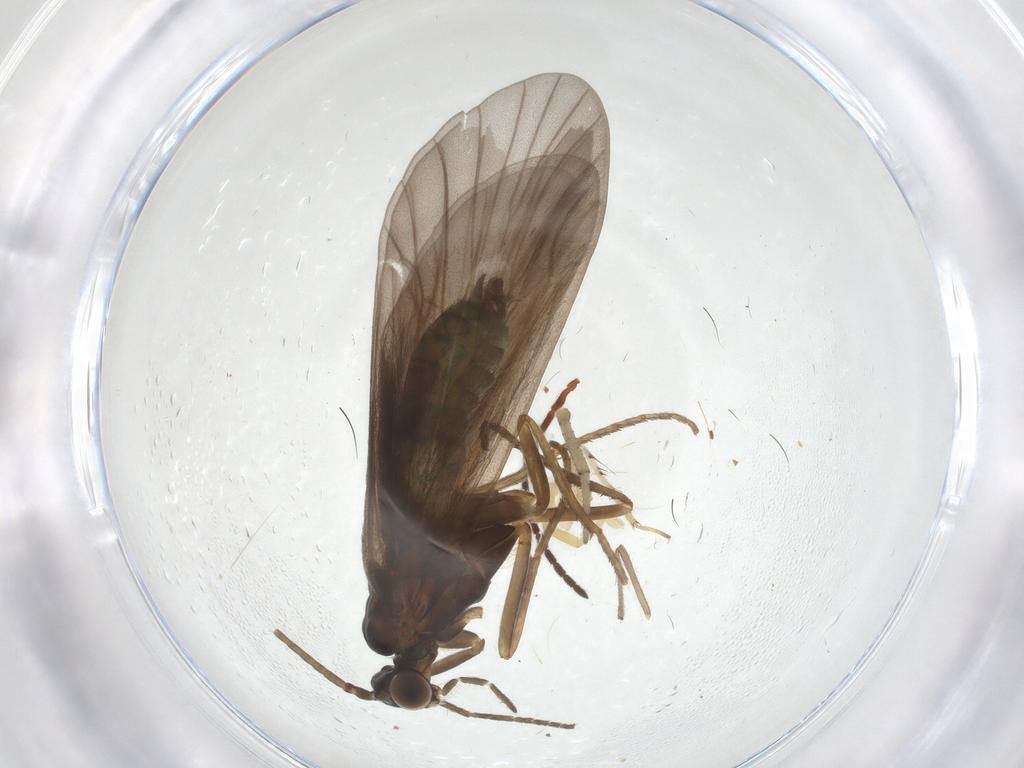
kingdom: Animalia
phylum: Arthropoda
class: Insecta
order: Trichoptera
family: Brachycentridae
